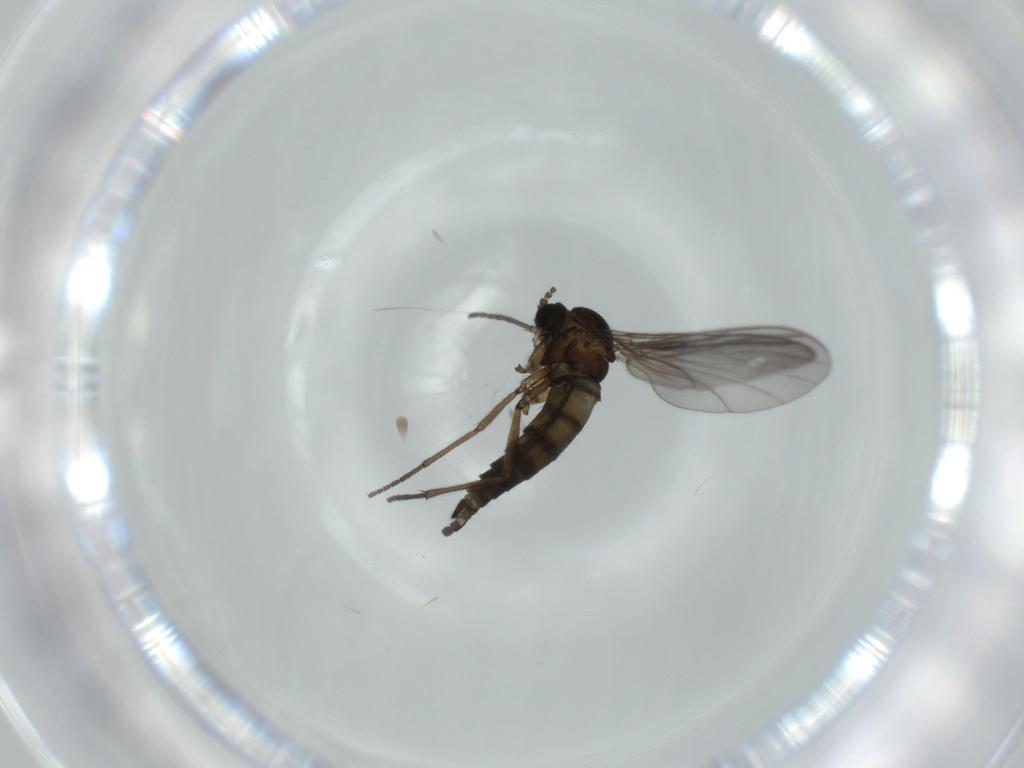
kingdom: Animalia
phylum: Arthropoda
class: Insecta
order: Diptera
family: Sciaridae
